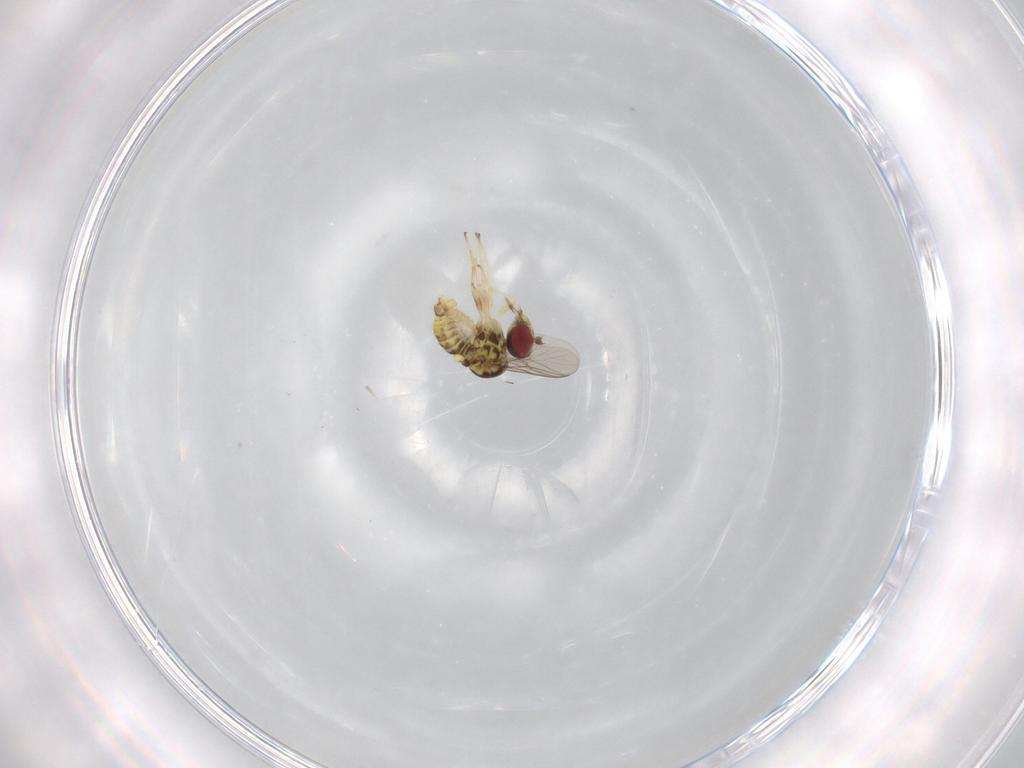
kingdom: Animalia
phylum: Arthropoda
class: Insecta
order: Diptera
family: Bombyliidae
